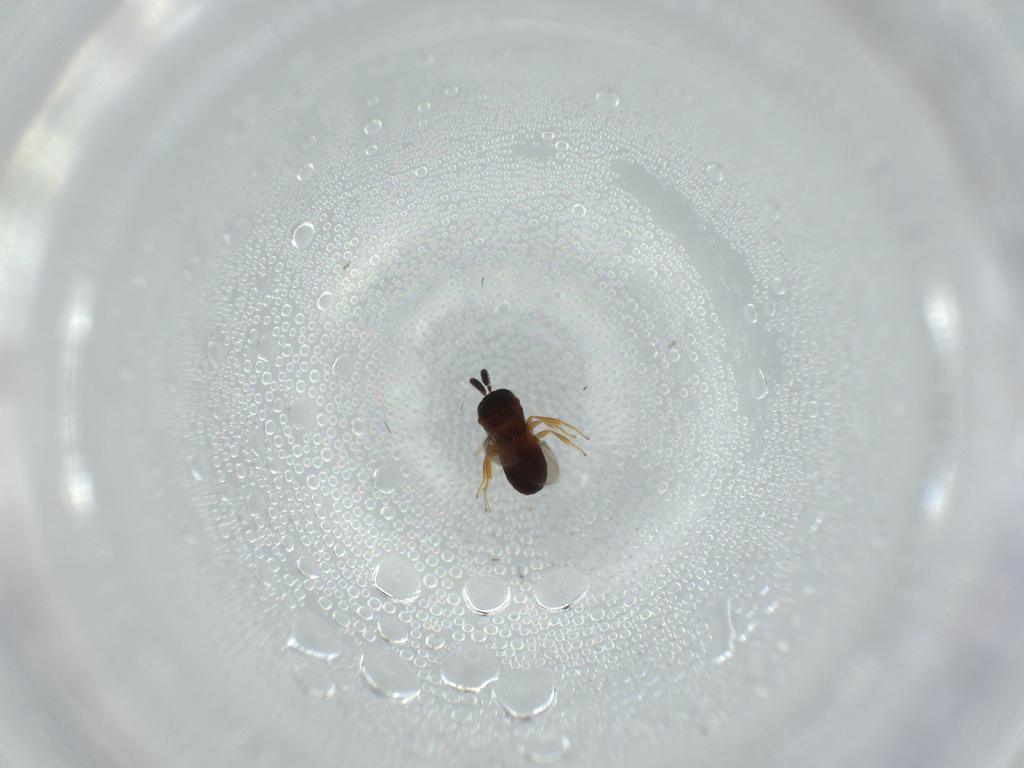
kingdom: Animalia
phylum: Arthropoda
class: Insecta
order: Hymenoptera
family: Scelionidae
